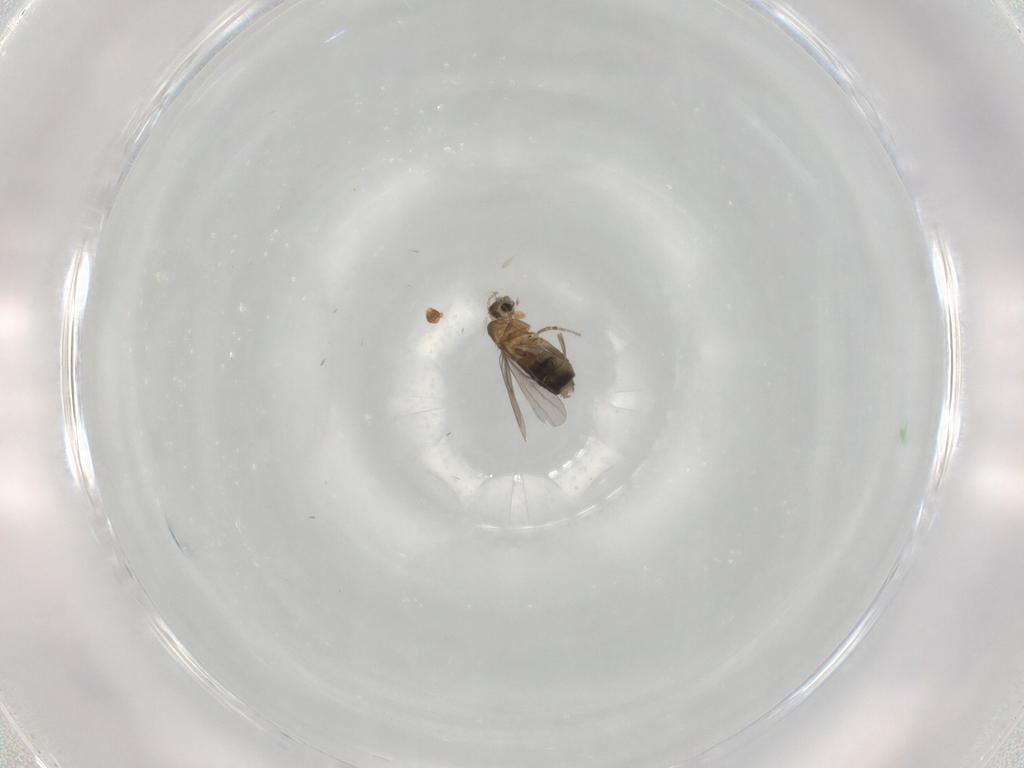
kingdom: Animalia
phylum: Arthropoda
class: Insecta
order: Diptera
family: Phoridae
